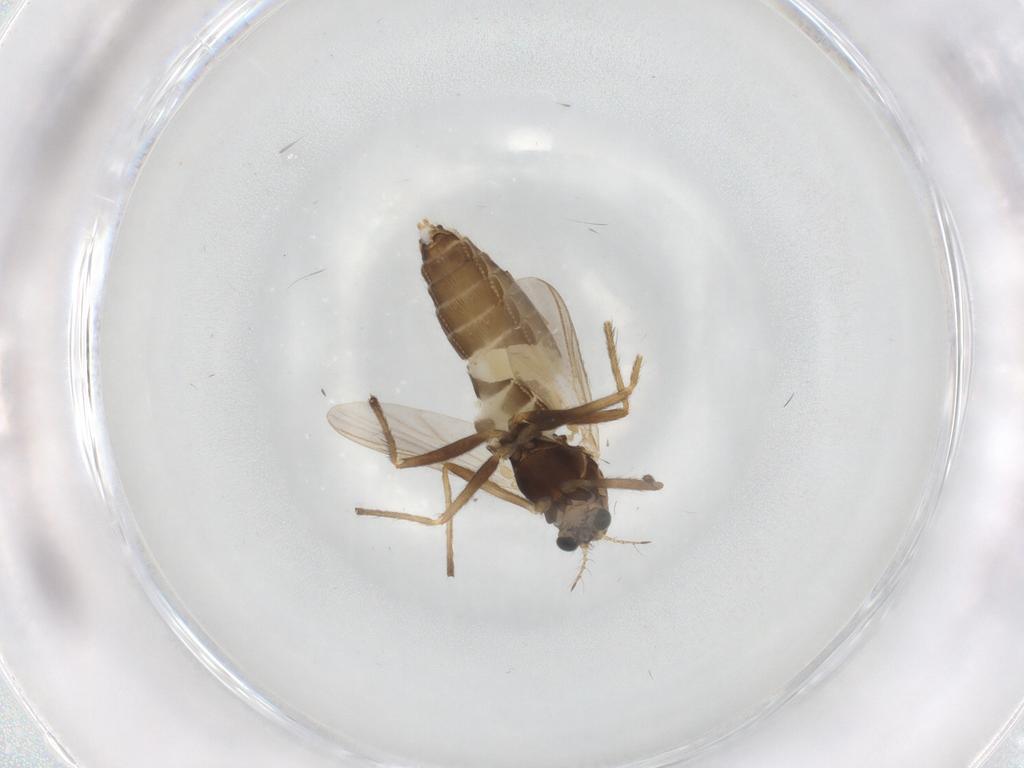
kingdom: Animalia
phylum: Arthropoda
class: Insecta
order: Diptera
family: Chironomidae
